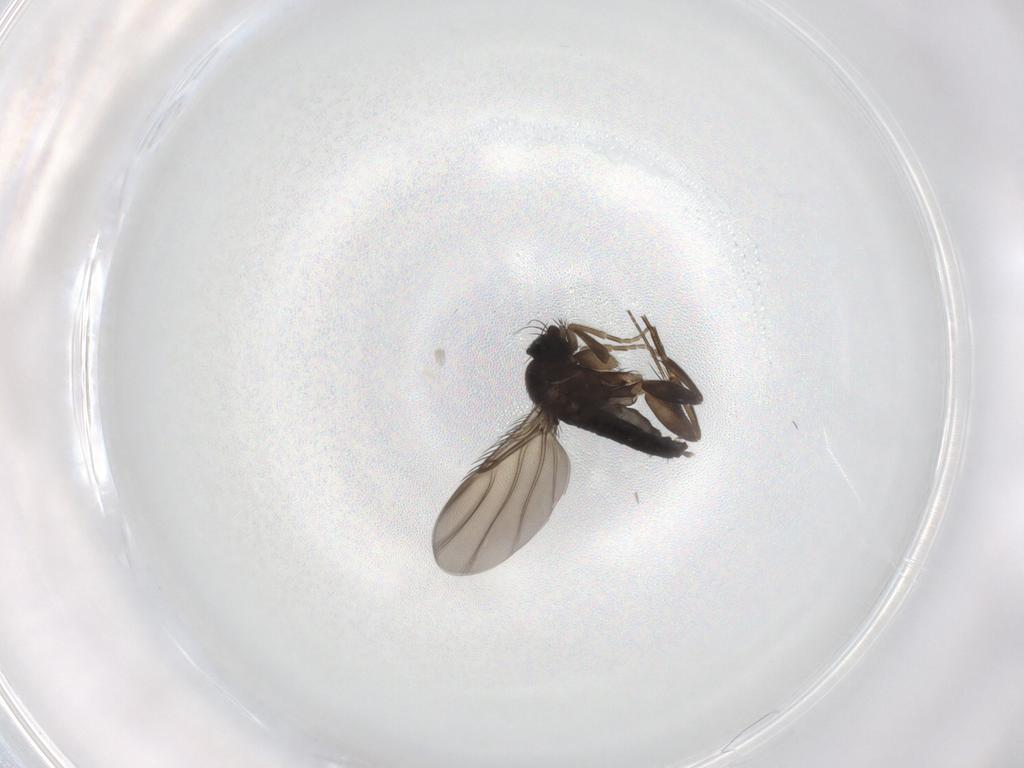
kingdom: Animalia
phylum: Arthropoda
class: Insecta
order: Diptera
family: Phoridae
